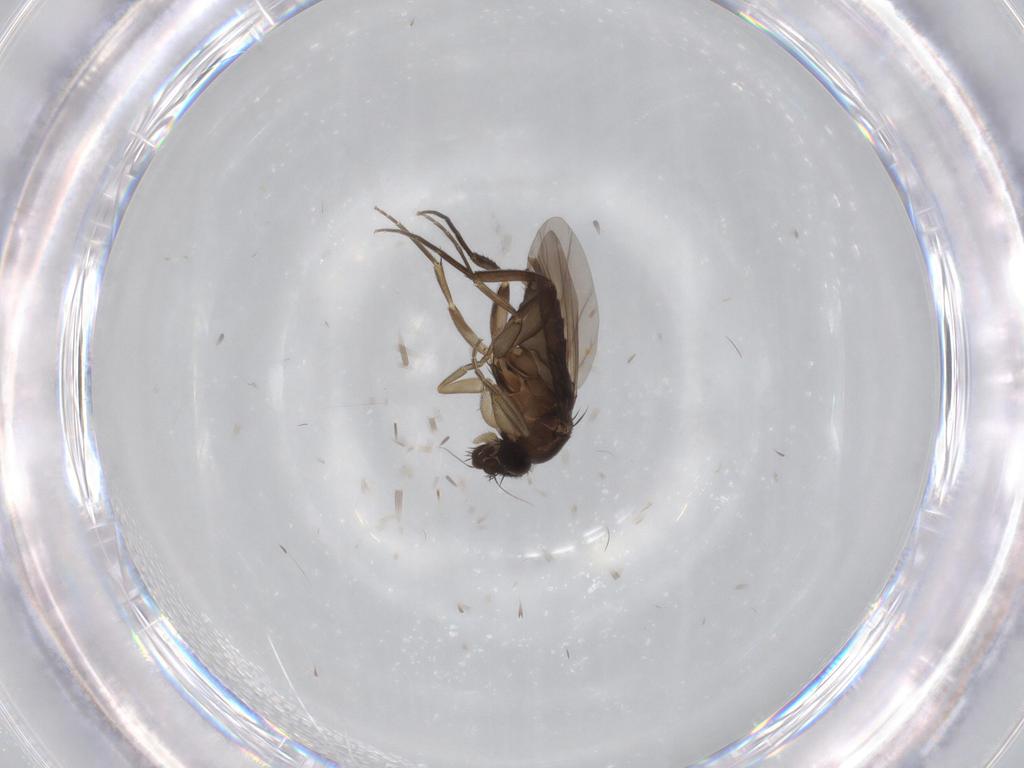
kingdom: Animalia
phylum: Arthropoda
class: Insecta
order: Diptera
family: Phoridae
